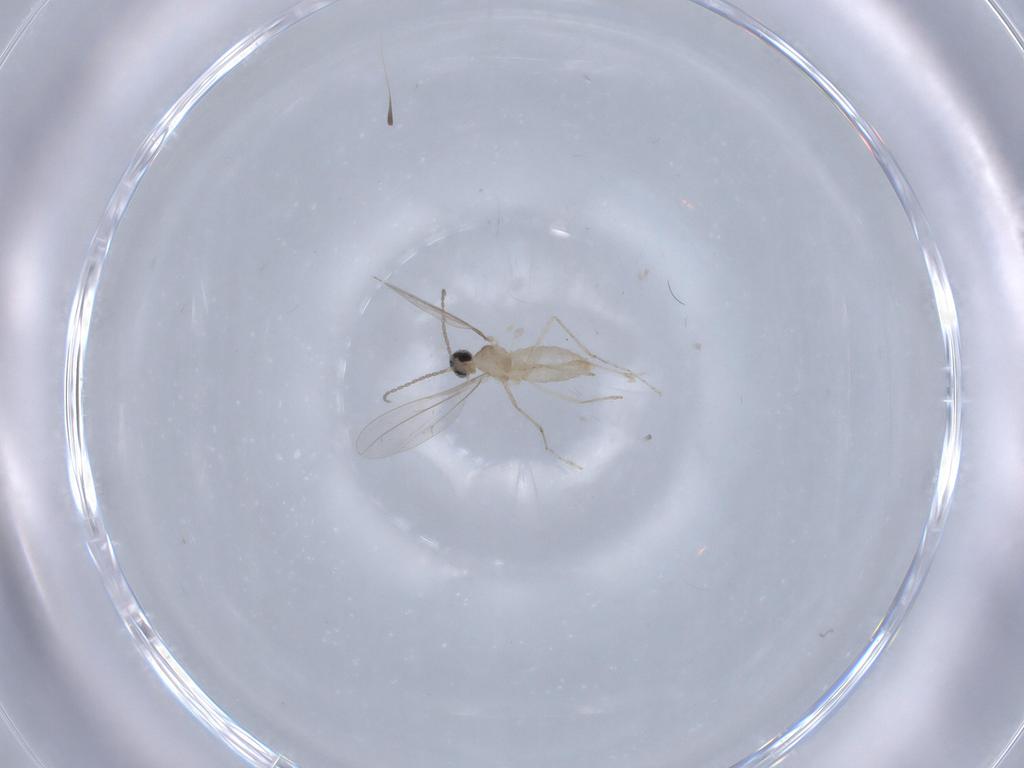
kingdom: Animalia
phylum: Arthropoda
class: Insecta
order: Diptera
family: Cecidomyiidae
